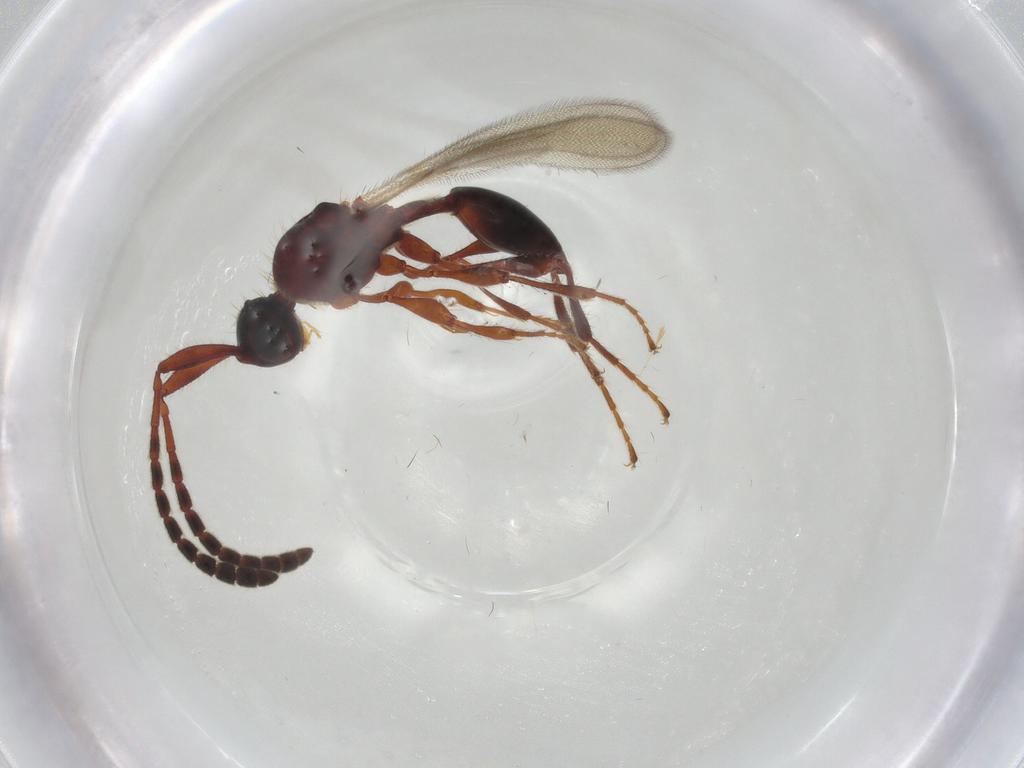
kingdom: Animalia
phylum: Arthropoda
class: Insecta
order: Hymenoptera
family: Diapriidae
